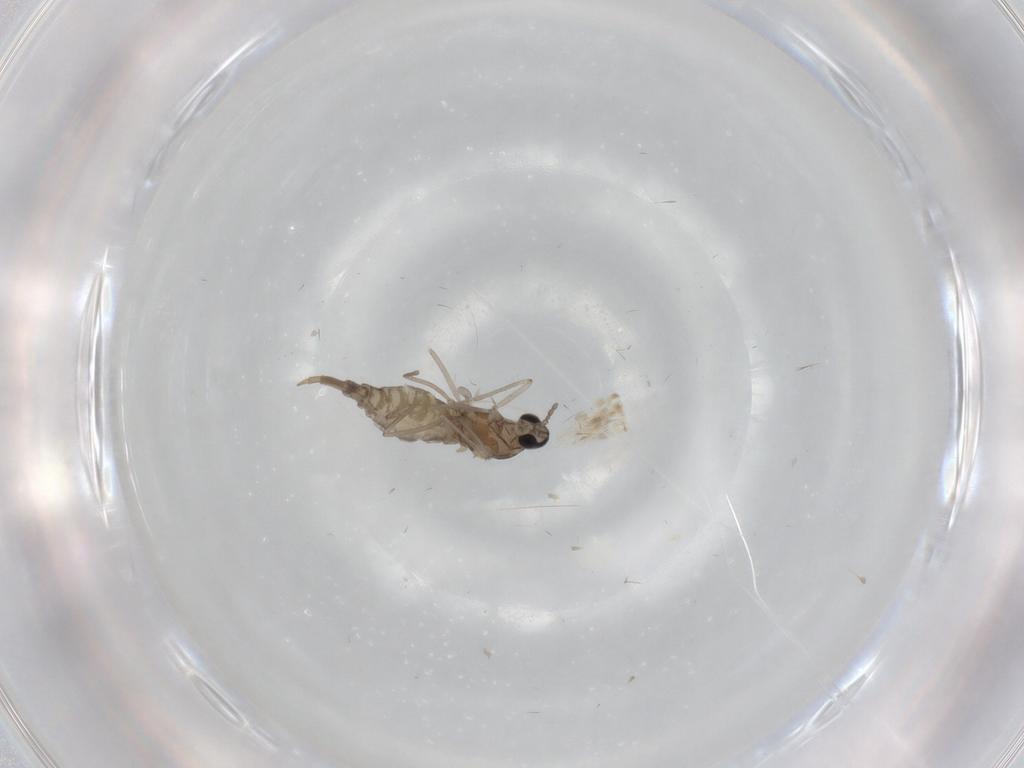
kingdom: Animalia
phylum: Arthropoda
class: Insecta
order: Diptera
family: Cecidomyiidae
